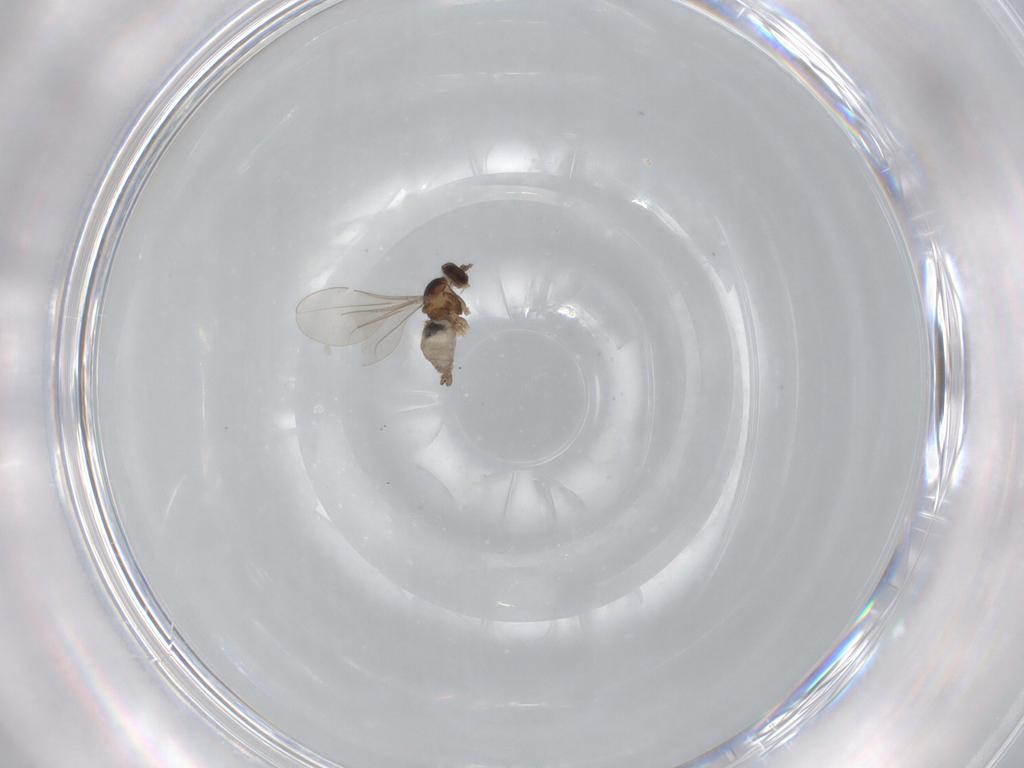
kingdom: Animalia
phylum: Arthropoda
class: Insecta
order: Diptera
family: Cecidomyiidae
